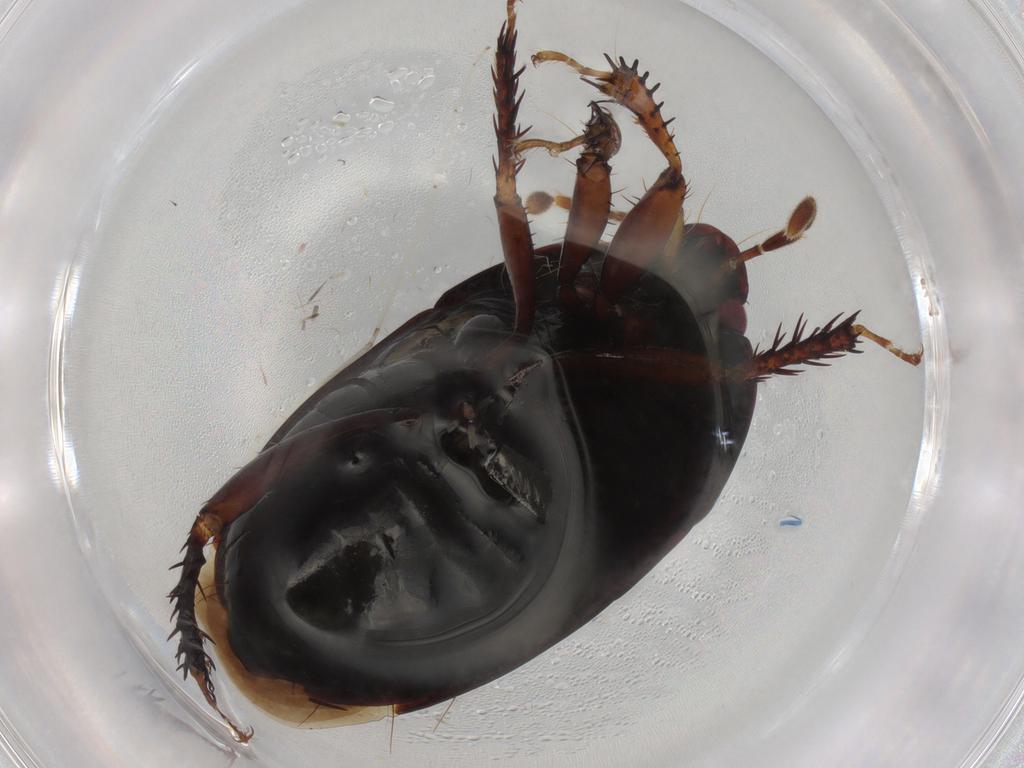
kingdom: Animalia
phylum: Arthropoda
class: Insecta
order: Hemiptera
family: Cydnidae
